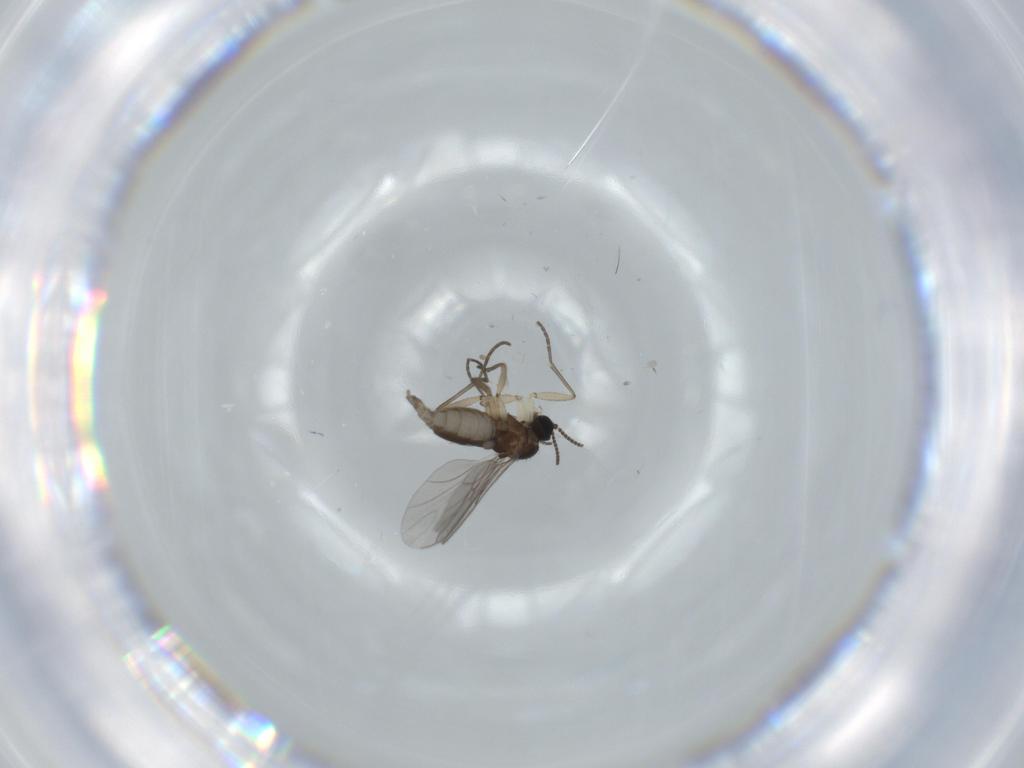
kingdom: Animalia
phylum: Arthropoda
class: Insecta
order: Diptera
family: Sciaridae
